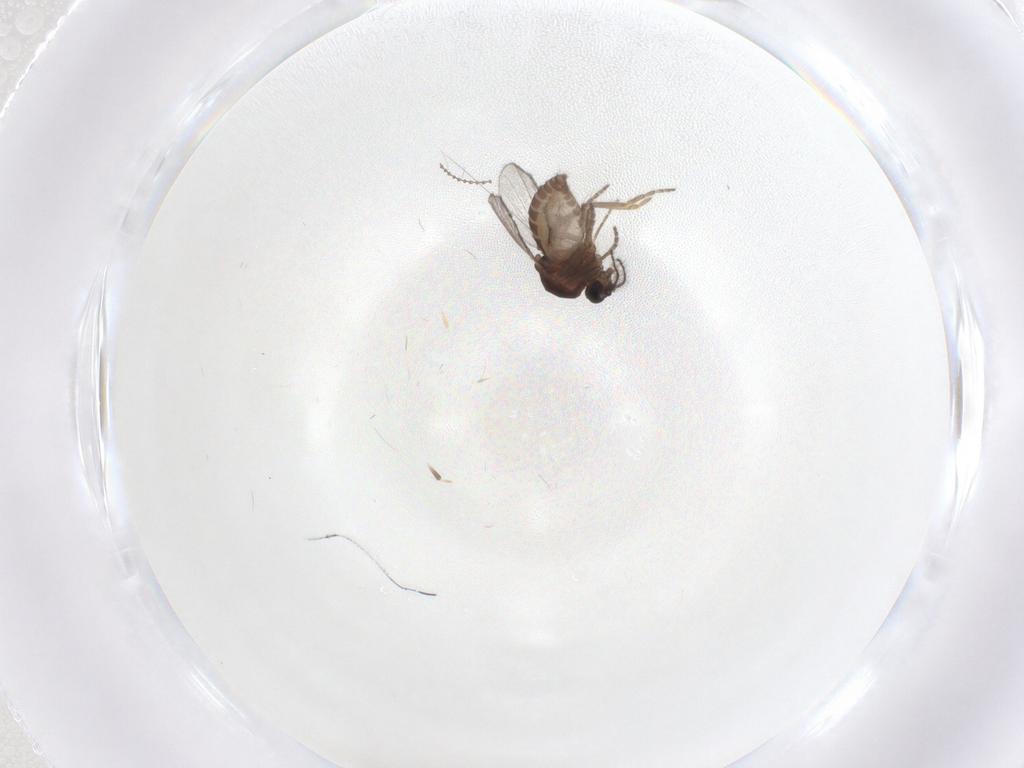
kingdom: Animalia
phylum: Arthropoda
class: Insecta
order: Diptera
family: Ceratopogonidae
